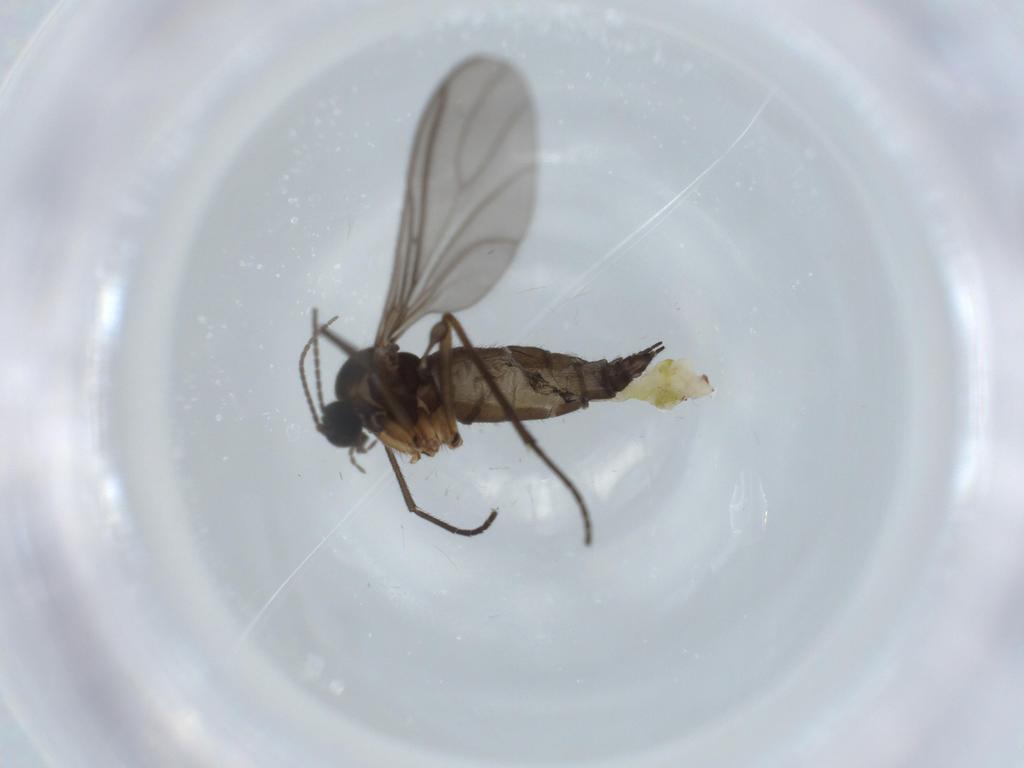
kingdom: Animalia
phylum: Arthropoda
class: Insecta
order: Diptera
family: Sciaridae
